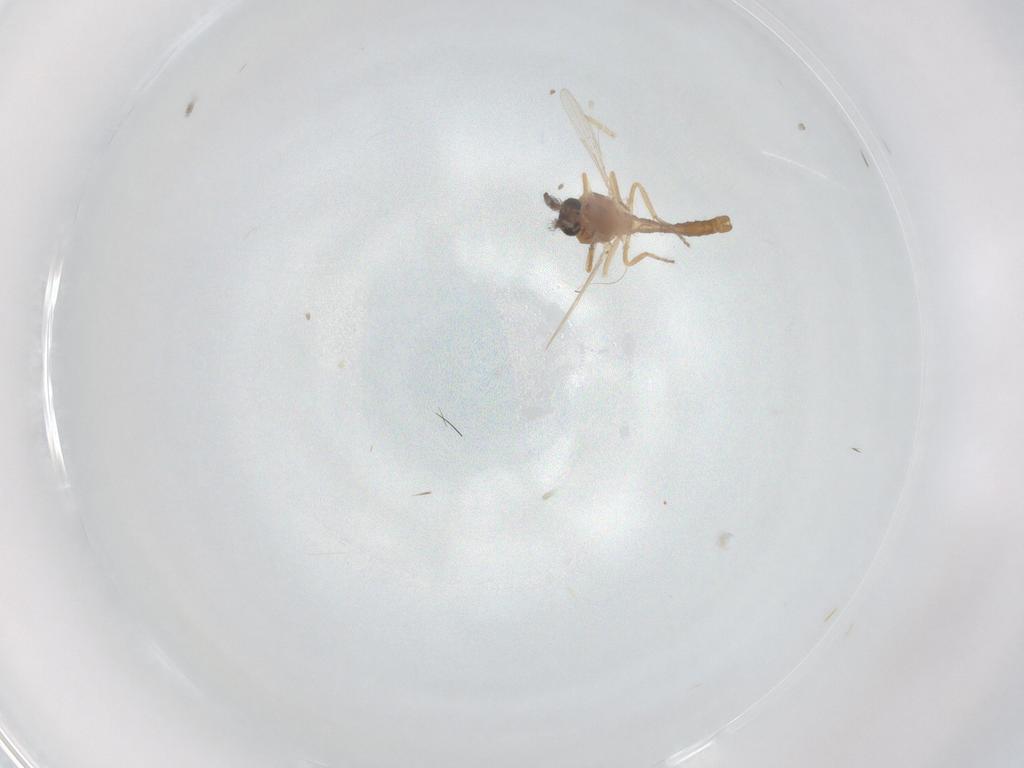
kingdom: Animalia
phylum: Arthropoda
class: Insecta
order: Diptera
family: Ceratopogonidae
